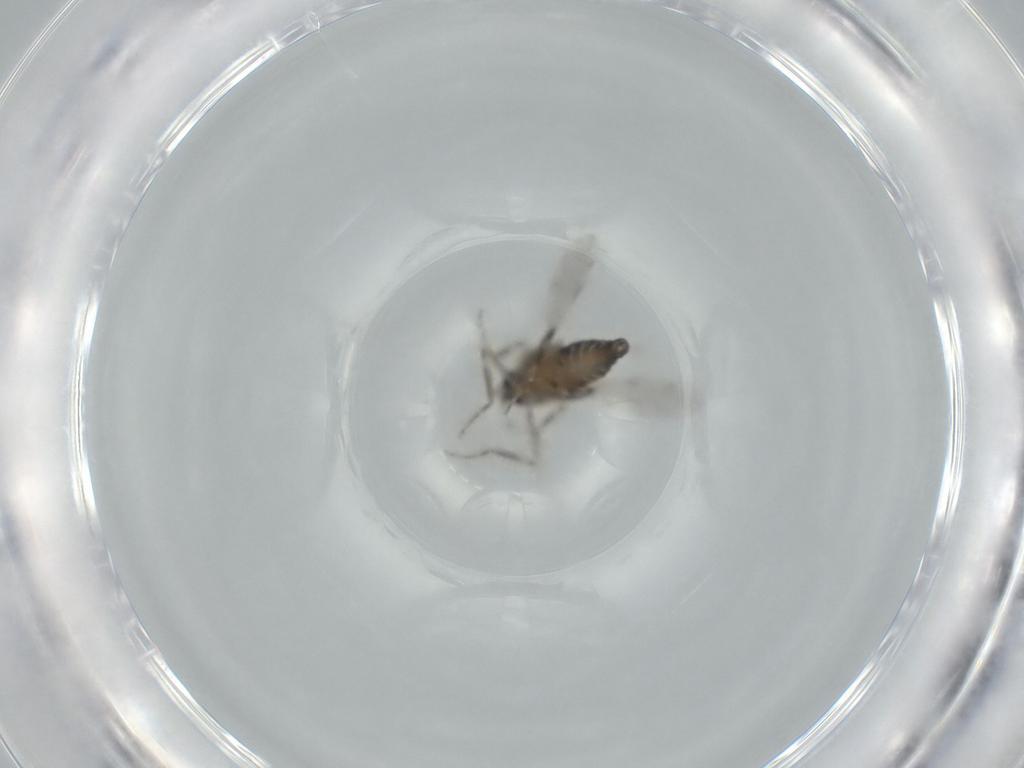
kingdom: Animalia
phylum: Arthropoda
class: Insecta
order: Diptera
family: Ceratopogonidae
